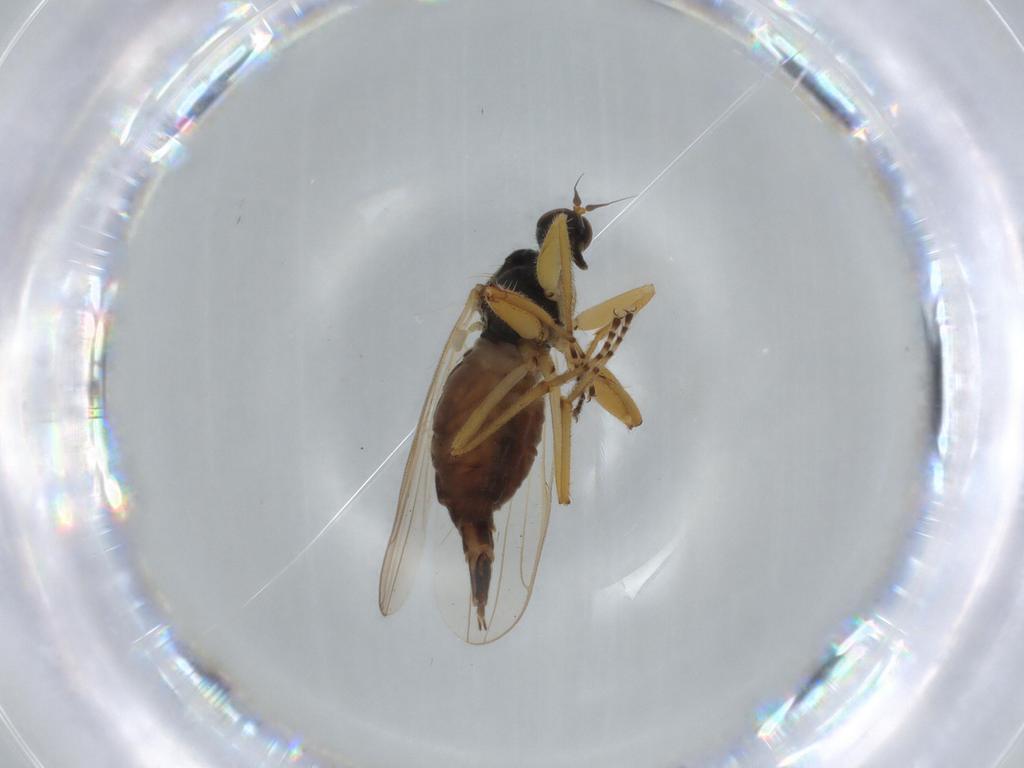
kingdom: Animalia
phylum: Arthropoda
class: Insecta
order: Diptera
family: Hybotidae
